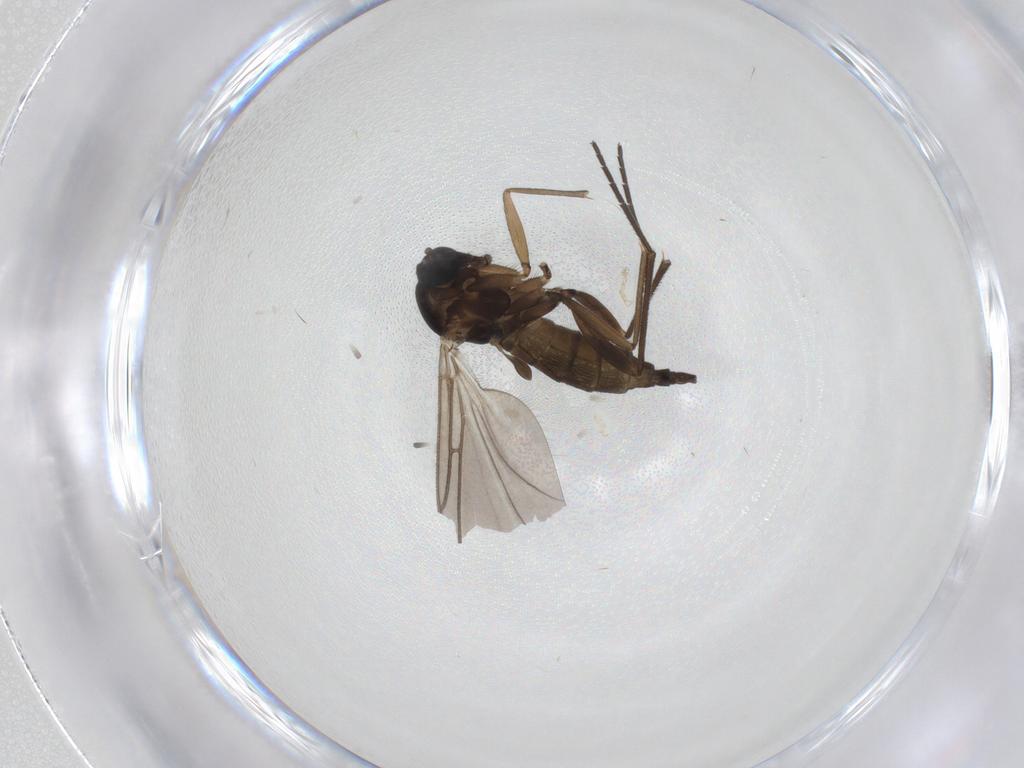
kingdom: Animalia
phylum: Arthropoda
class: Insecta
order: Diptera
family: Sciaridae
